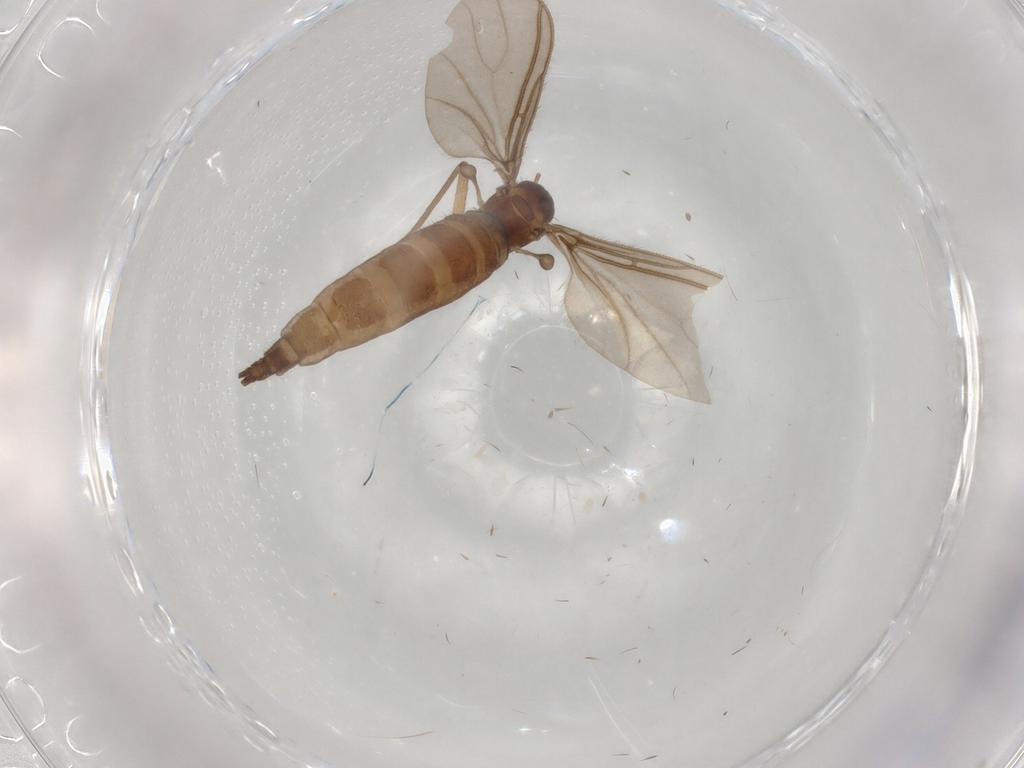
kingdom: Animalia
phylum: Arthropoda
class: Insecta
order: Diptera
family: Sciaridae
